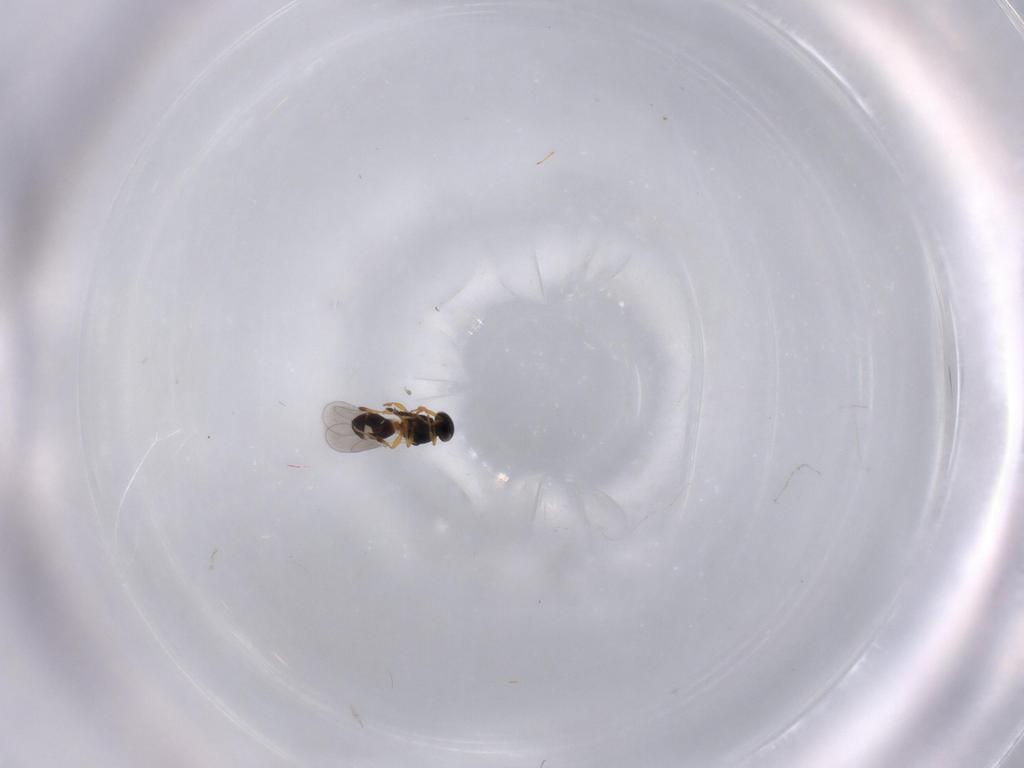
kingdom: Animalia
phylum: Arthropoda
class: Insecta
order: Hymenoptera
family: Platygastridae
